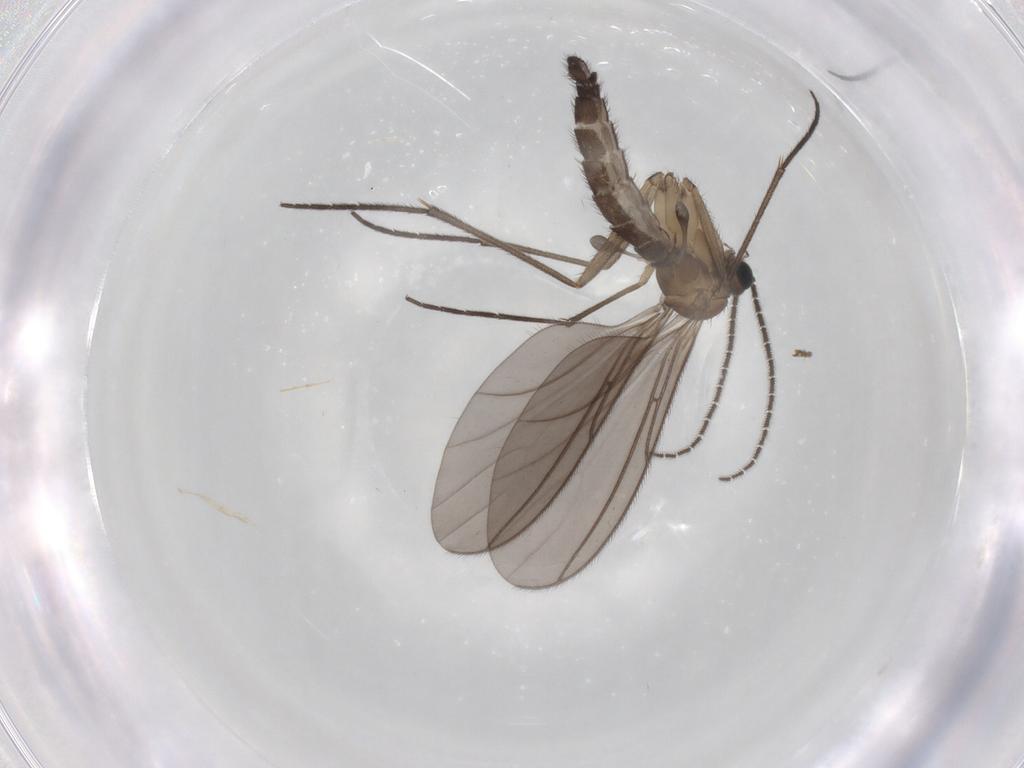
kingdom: Animalia
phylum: Arthropoda
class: Insecta
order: Diptera
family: Sciaridae
